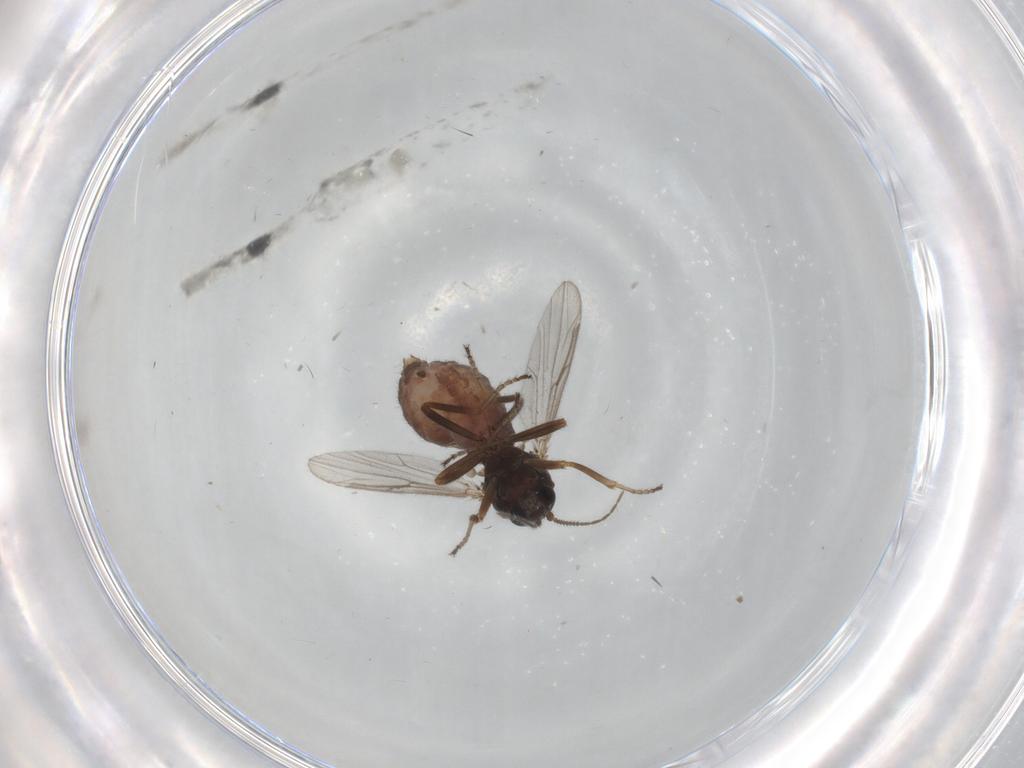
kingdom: Animalia
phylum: Arthropoda
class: Insecta
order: Diptera
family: Ceratopogonidae
